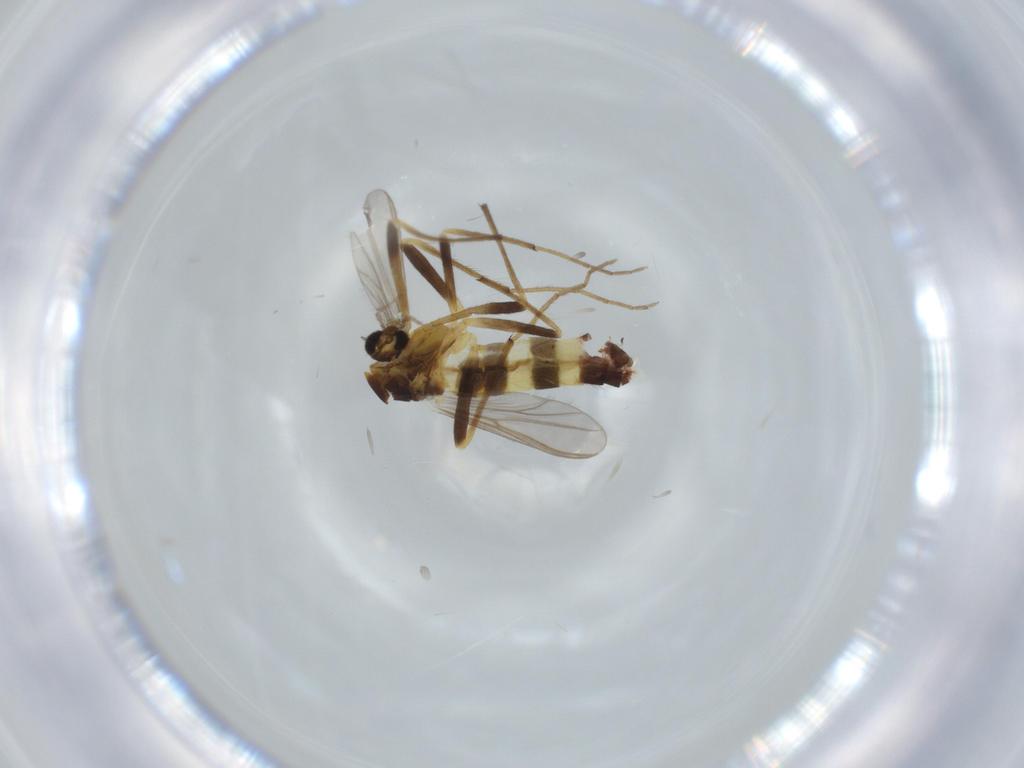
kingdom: Animalia
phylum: Arthropoda
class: Insecta
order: Diptera
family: Chironomidae
